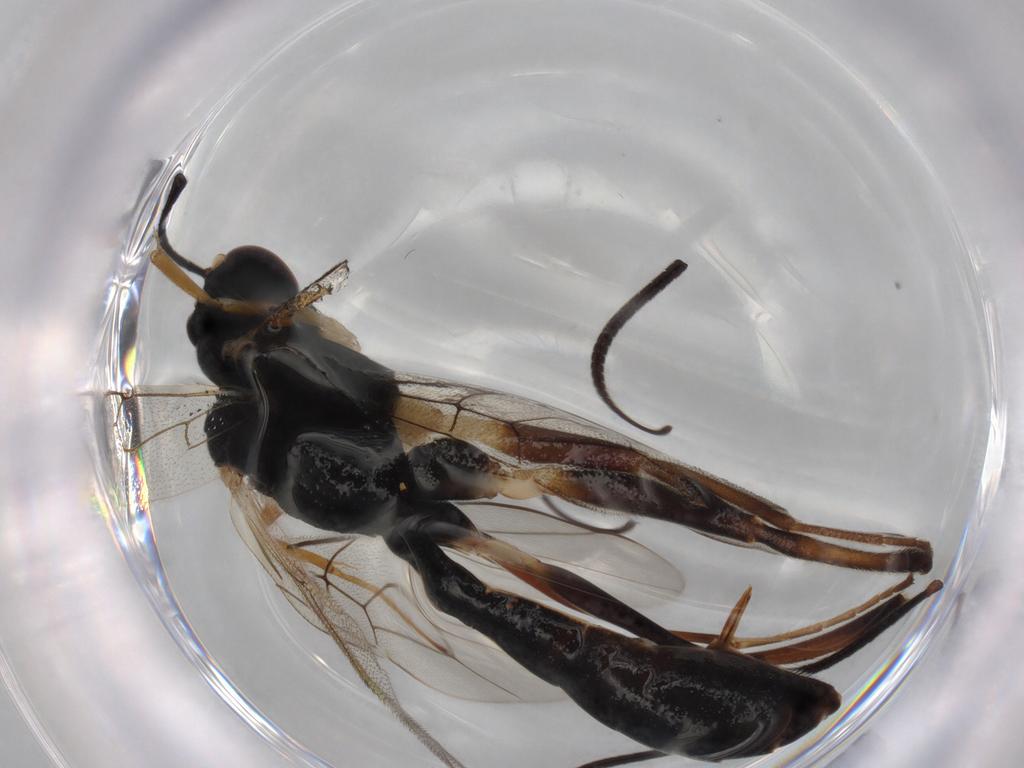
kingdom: Animalia
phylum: Arthropoda
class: Insecta
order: Hymenoptera
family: Ichneumonidae
